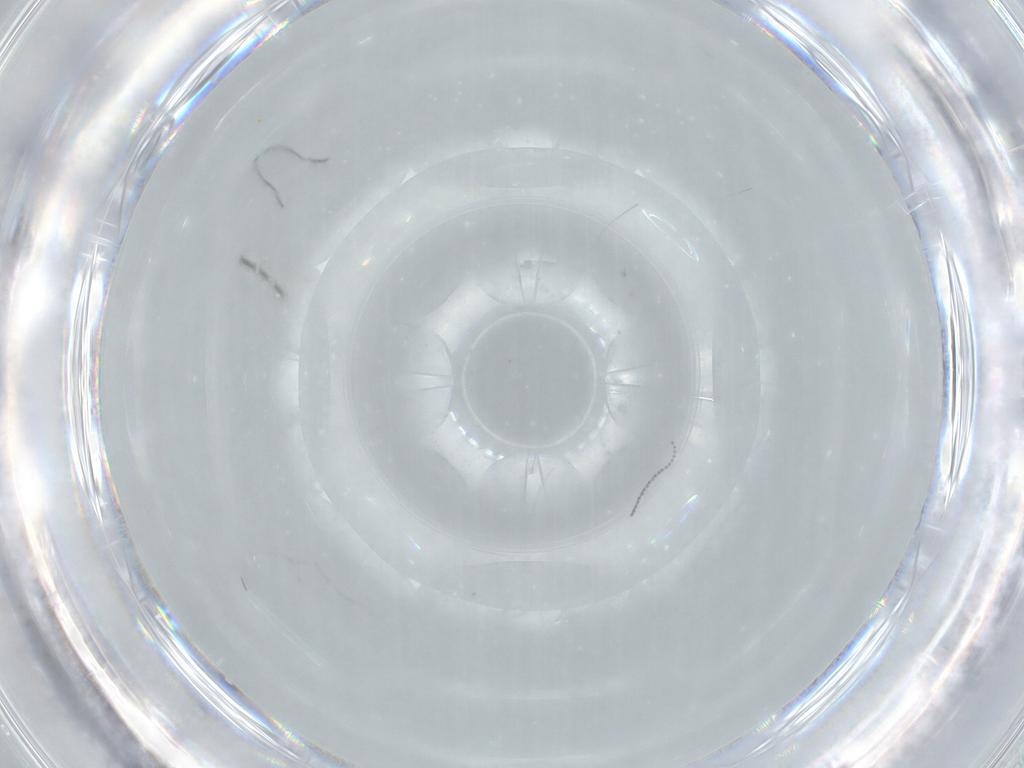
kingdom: Animalia
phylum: Arthropoda
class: Insecta
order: Diptera
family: Cecidomyiidae
